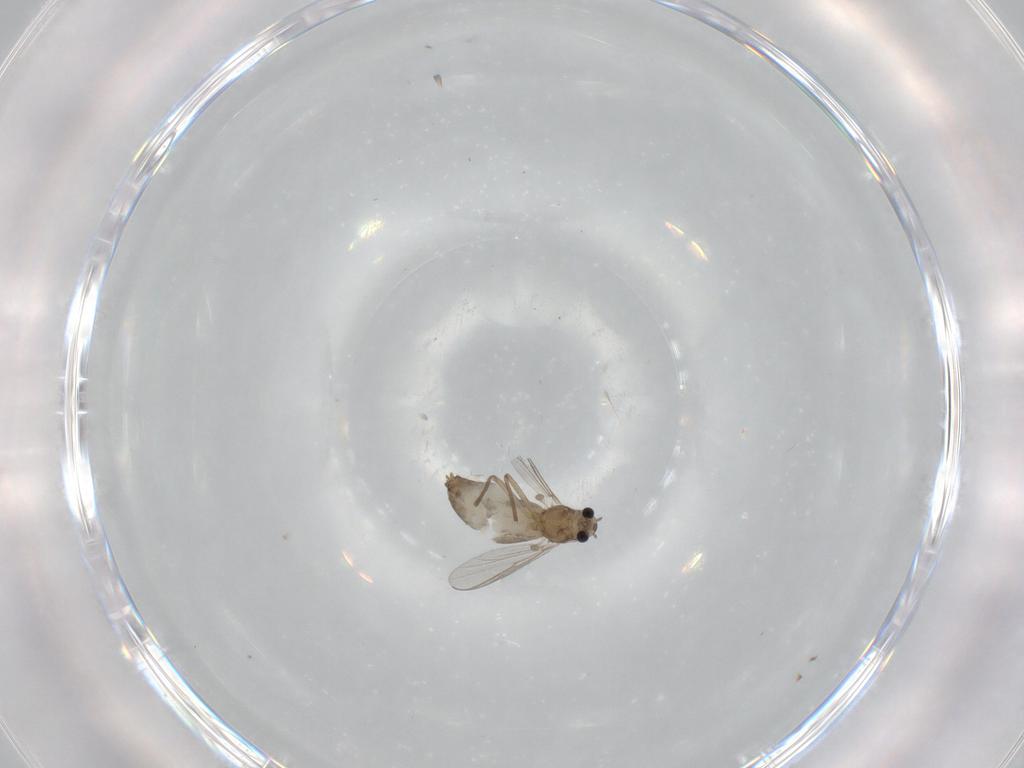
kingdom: Animalia
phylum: Arthropoda
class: Insecta
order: Diptera
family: Chironomidae
